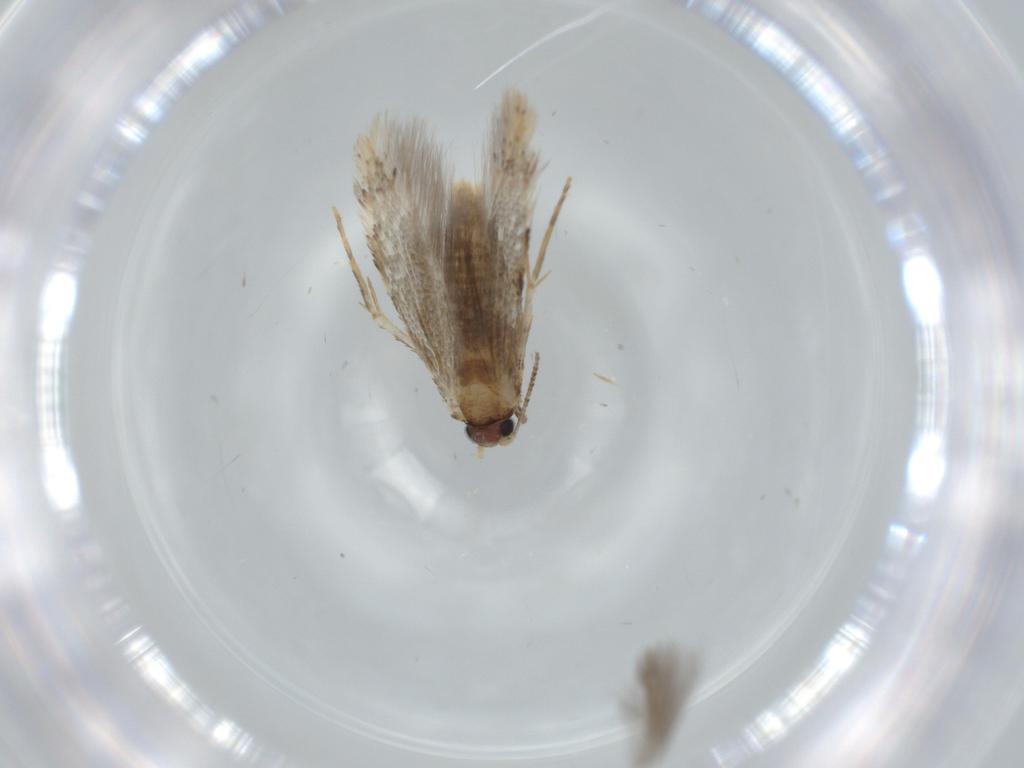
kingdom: Animalia
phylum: Arthropoda
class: Insecta
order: Lepidoptera
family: Tineidae
